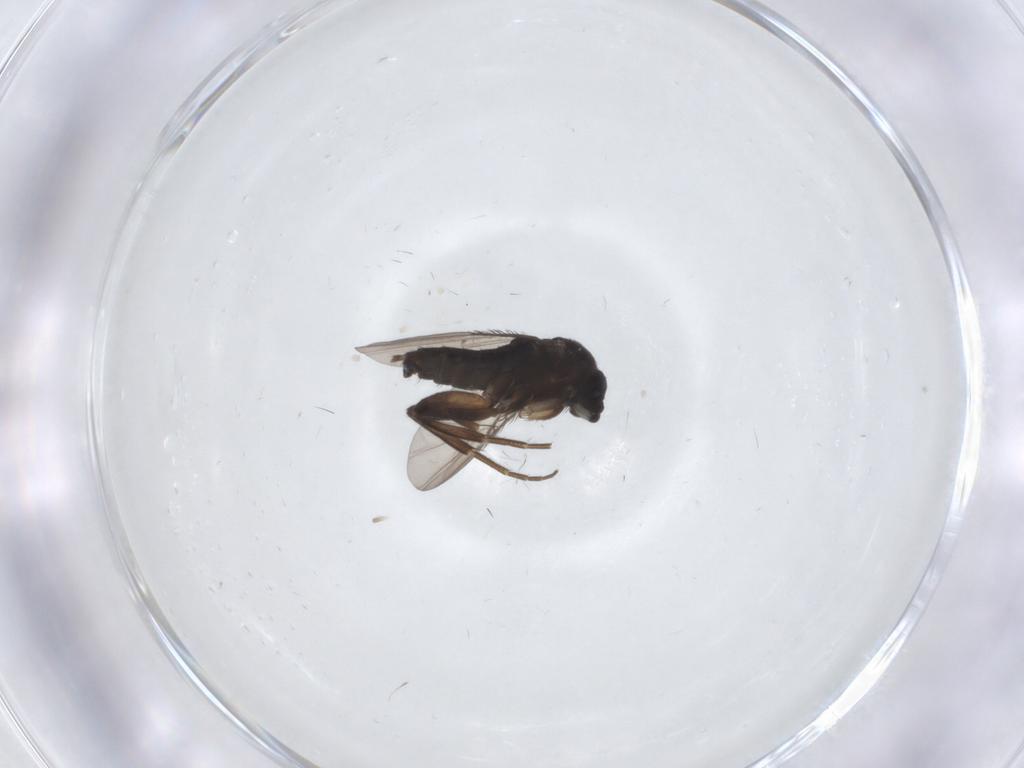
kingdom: Animalia
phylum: Arthropoda
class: Insecta
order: Diptera
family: Phoridae
